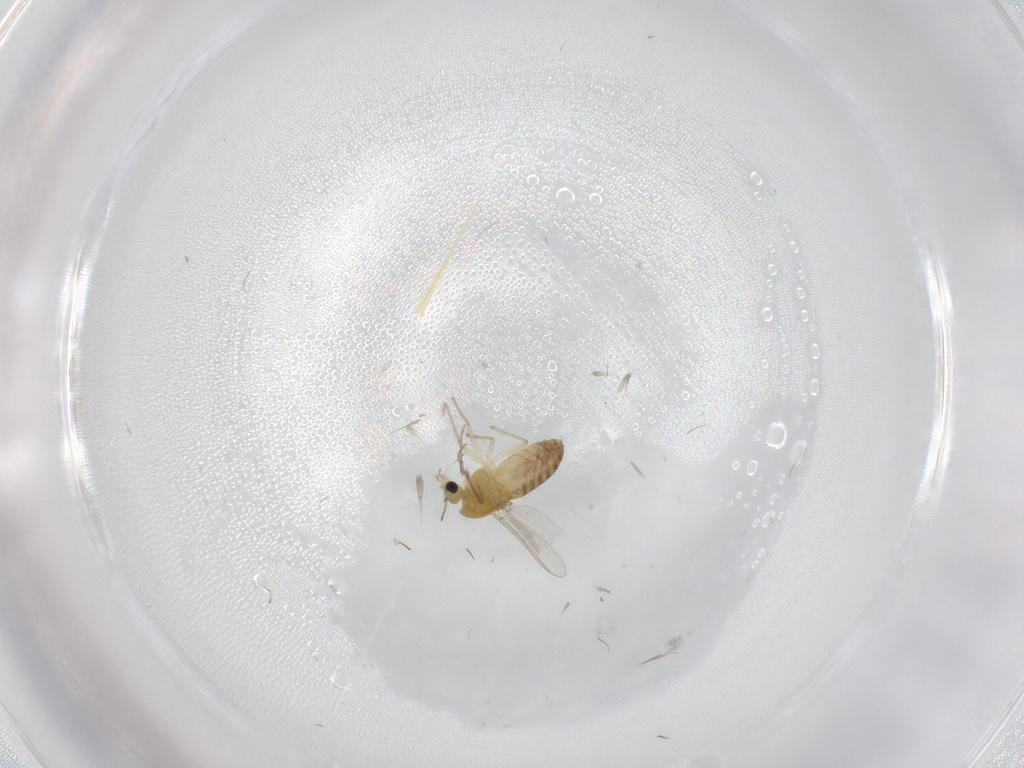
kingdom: Animalia
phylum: Arthropoda
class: Insecta
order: Diptera
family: Chironomidae
